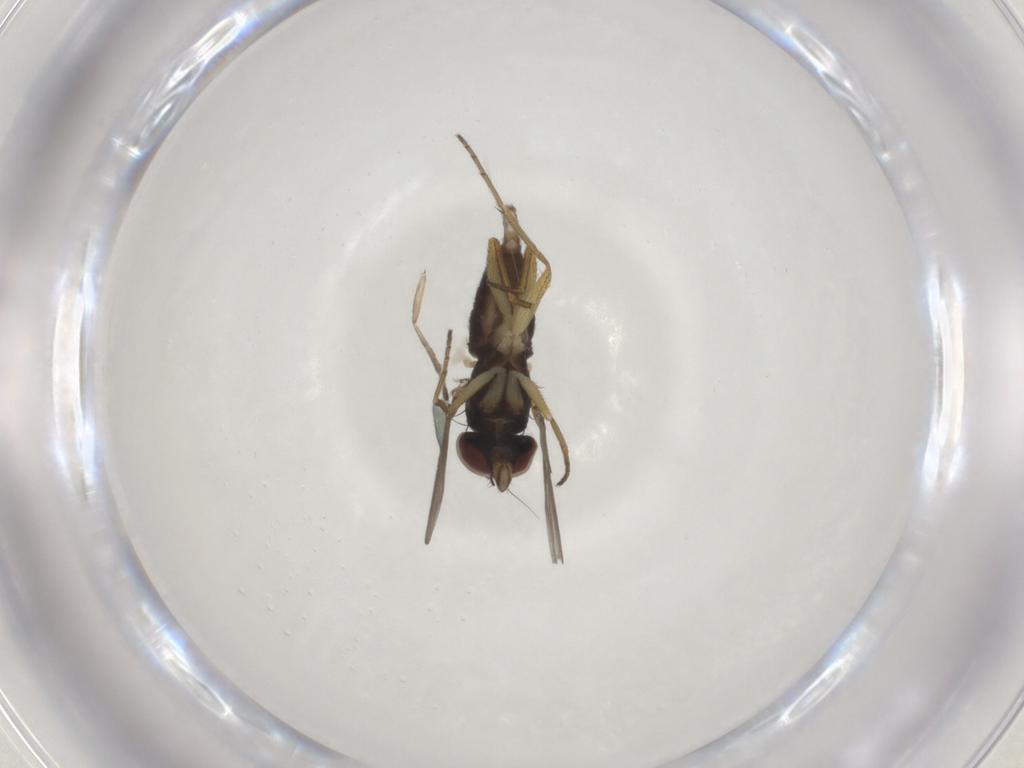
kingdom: Animalia
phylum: Arthropoda
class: Insecta
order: Diptera
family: Dolichopodidae
